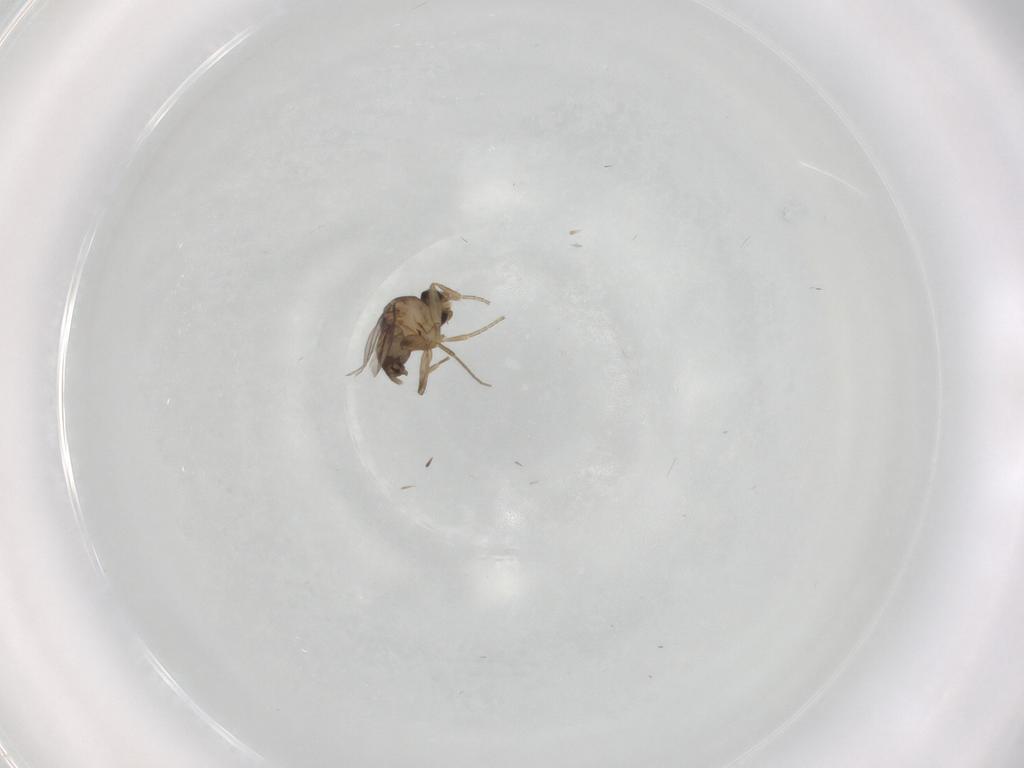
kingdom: Animalia
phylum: Arthropoda
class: Insecta
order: Diptera
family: Phoridae
